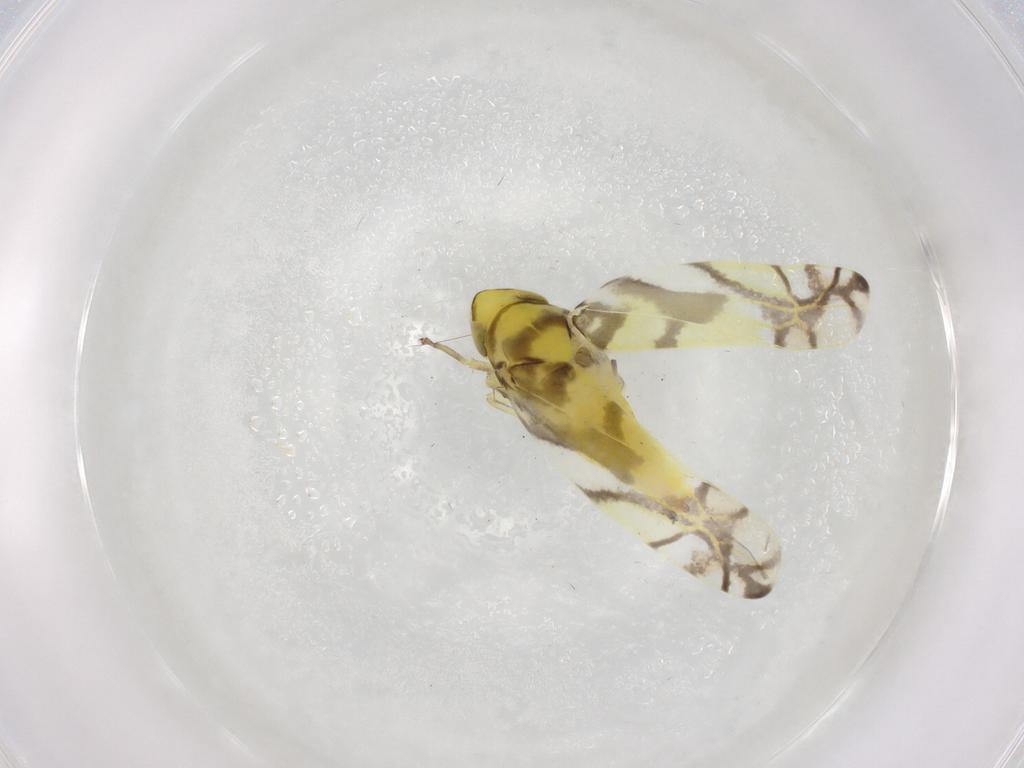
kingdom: Animalia
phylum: Arthropoda
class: Insecta
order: Hemiptera
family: Cicadellidae
